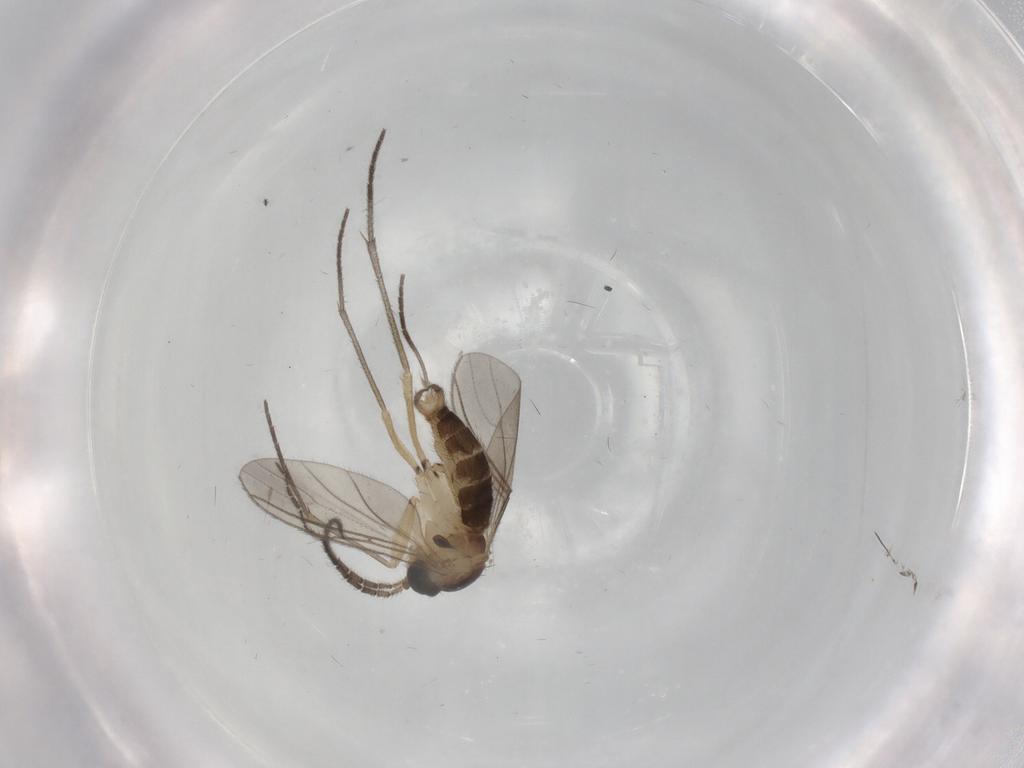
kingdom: Animalia
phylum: Arthropoda
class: Insecta
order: Diptera
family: Sciaridae
